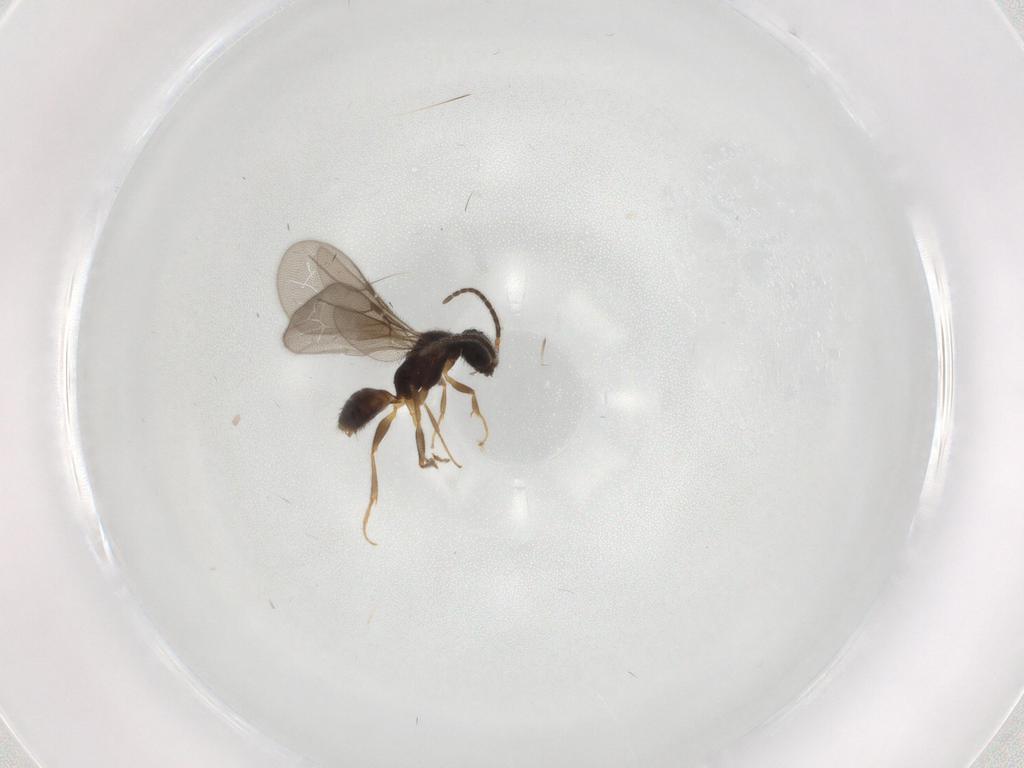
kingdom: Animalia
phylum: Arthropoda
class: Insecta
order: Hymenoptera
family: Bethylidae
